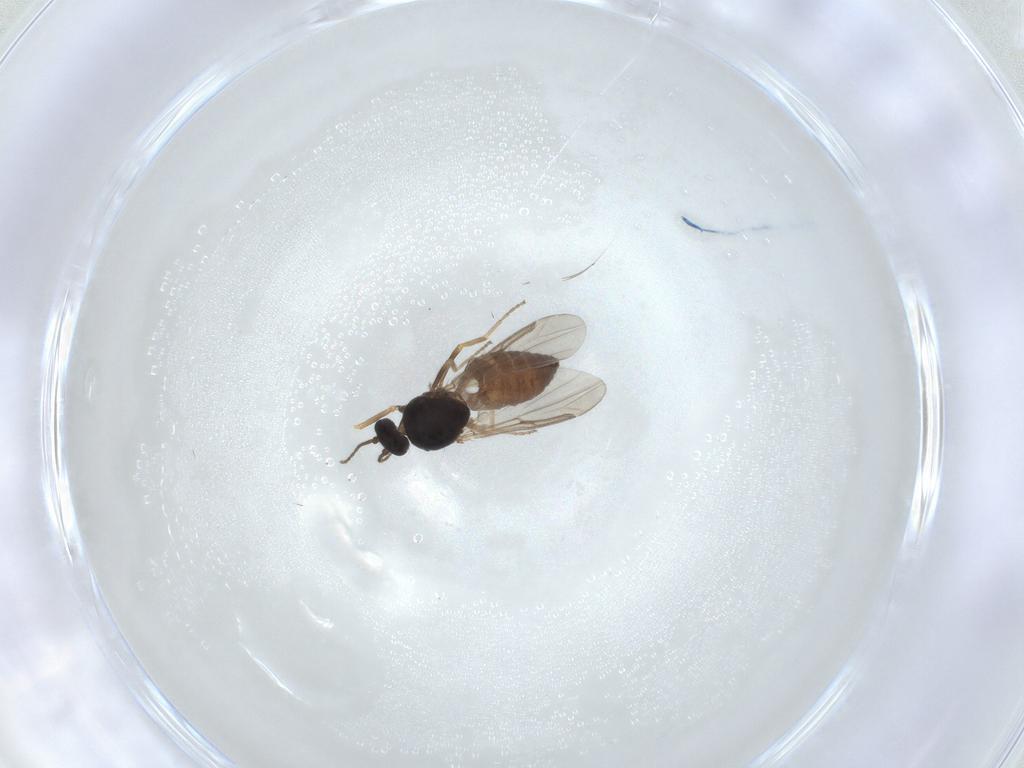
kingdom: Animalia
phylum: Arthropoda
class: Insecta
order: Diptera
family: Ceratopogonidae
